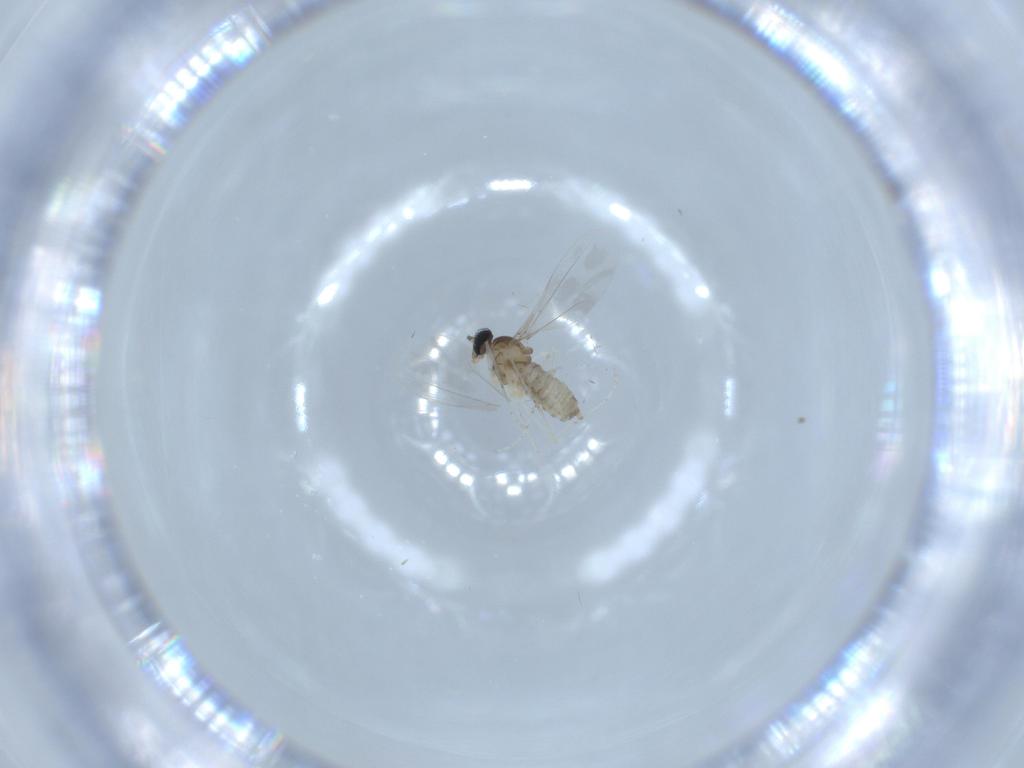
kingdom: Animalia
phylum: Arthropoda
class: Insecta
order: Diptera
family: Cecidomyiidae
